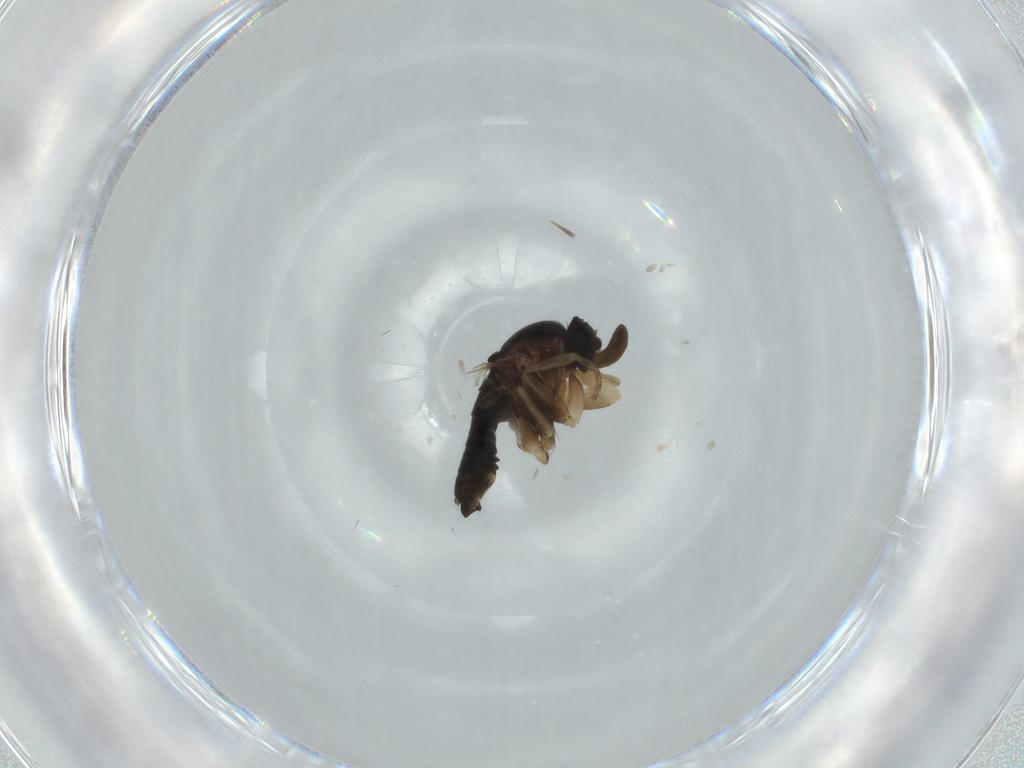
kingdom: Animalia
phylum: Arthropoda
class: Insecta
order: Diptera
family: Phoridae
